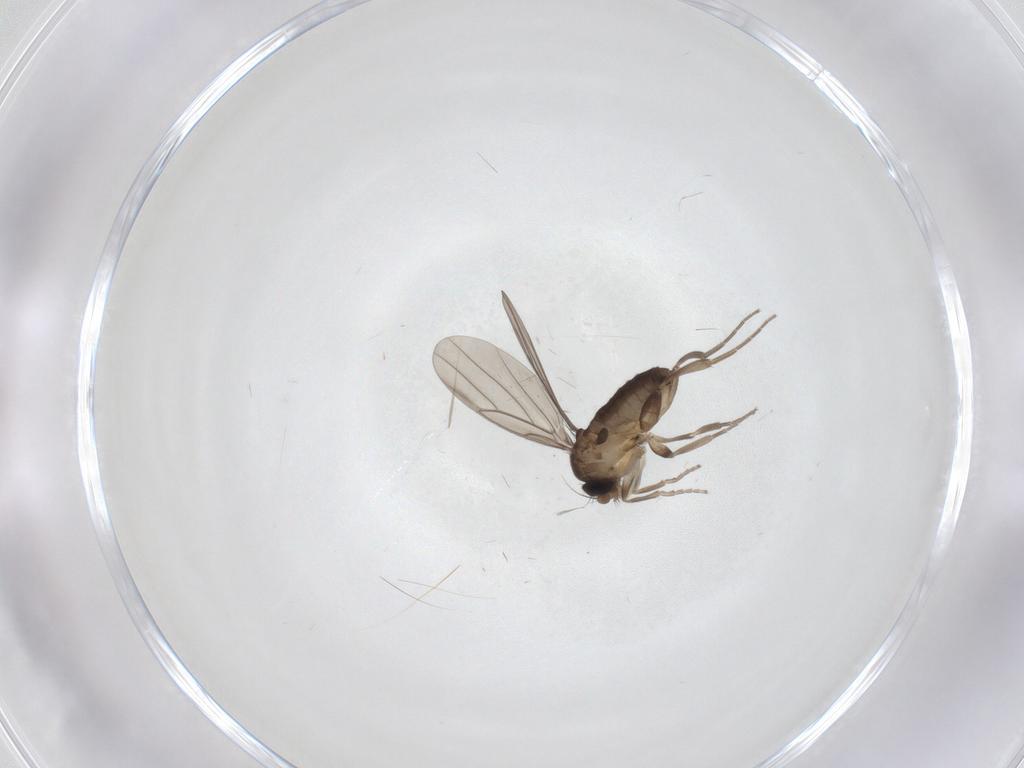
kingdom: Animalia
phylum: Arthropoda
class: Insecta
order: Diptera
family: Phoridae
